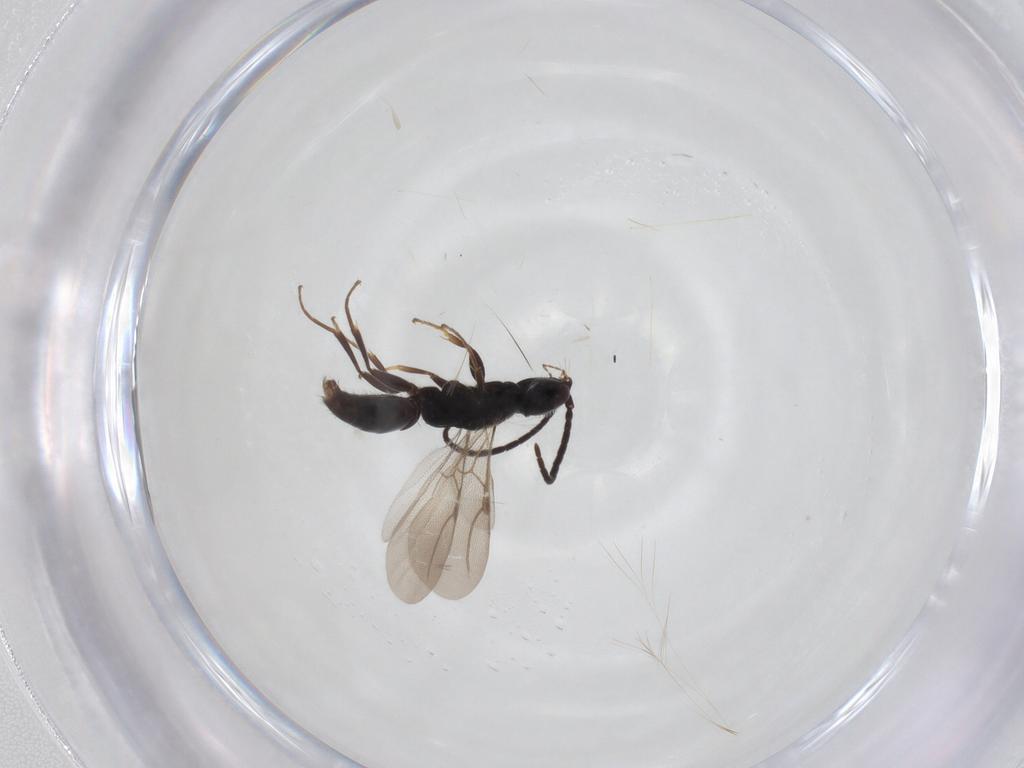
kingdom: Animalia
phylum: Arthropoda
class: Insecta
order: Hymenoptera
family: Bethylidae
